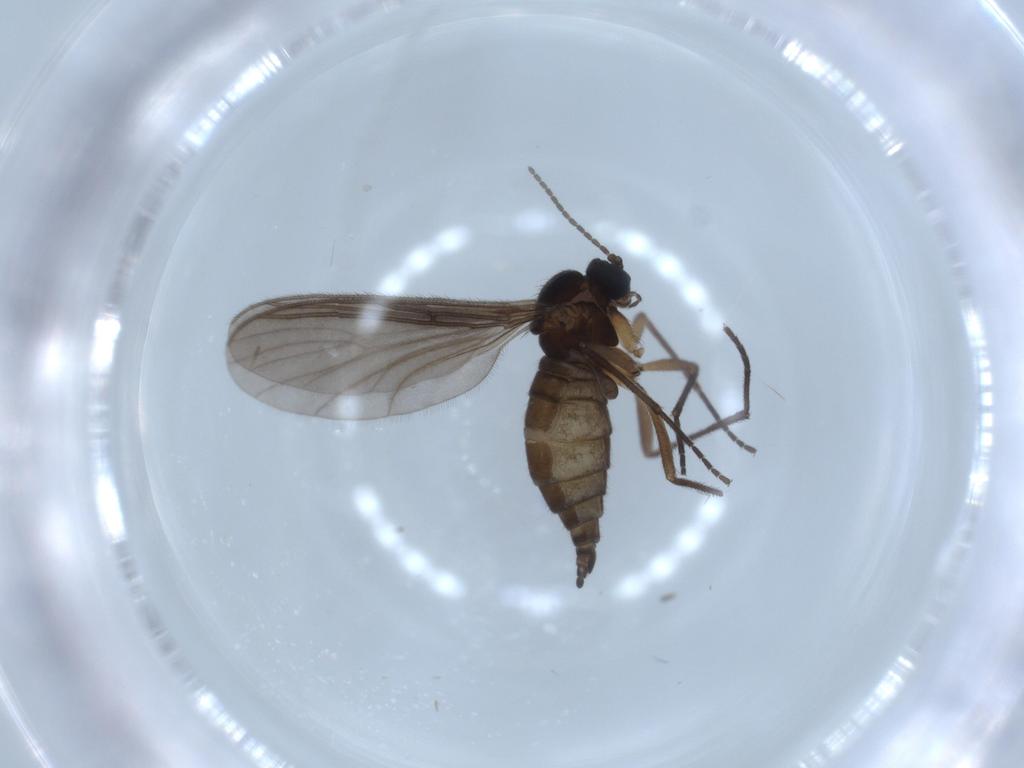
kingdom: Animalia
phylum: Arthropoda
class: Insecta
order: Diptera
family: Sciaridae
